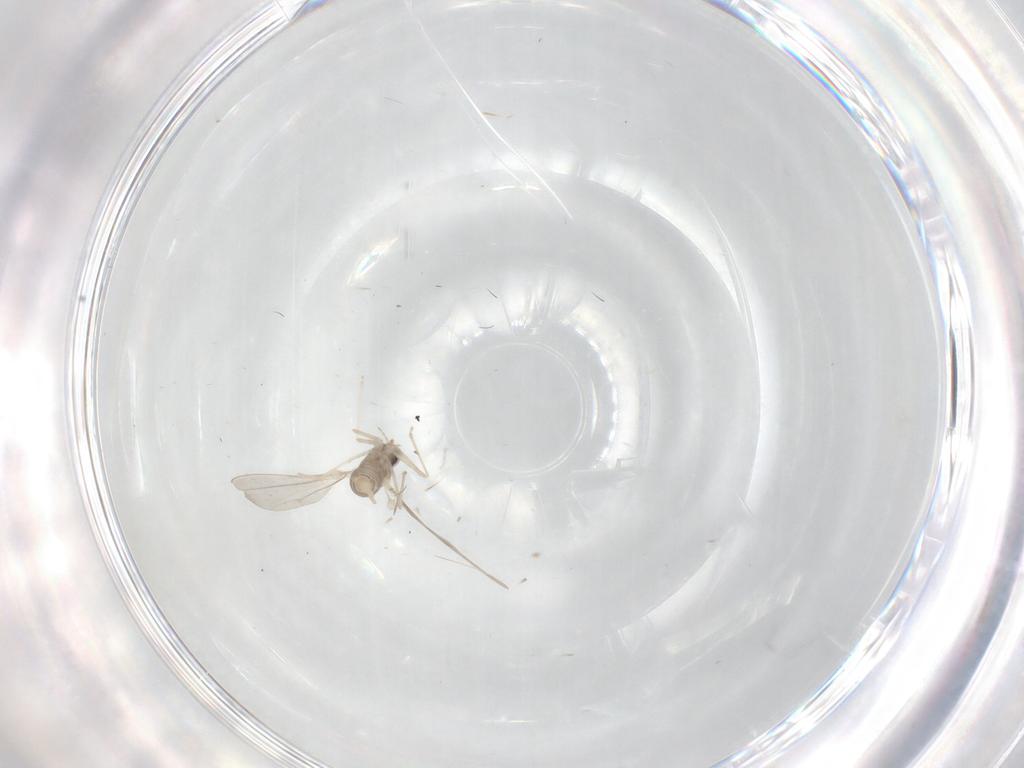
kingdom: Animalia
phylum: Arthropoda
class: Insecta
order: Diptera
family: Cecidomyiidae
